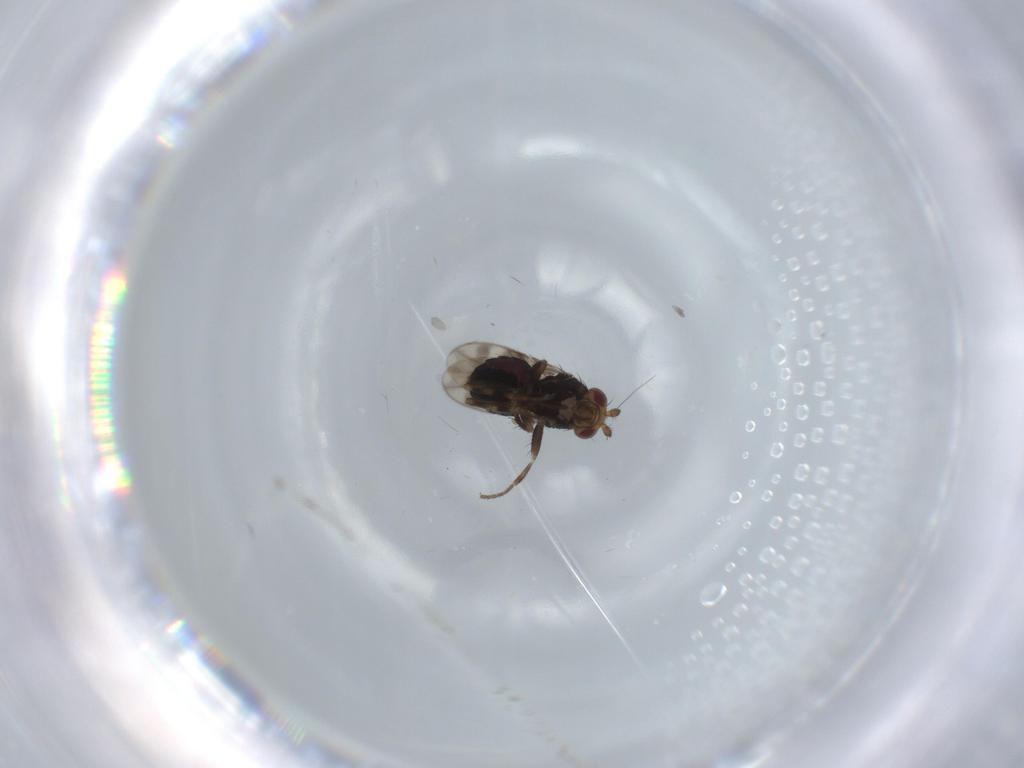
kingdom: Animalia
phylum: Arthropoda
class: Insecta
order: Diptera
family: Sphaeroceridae
